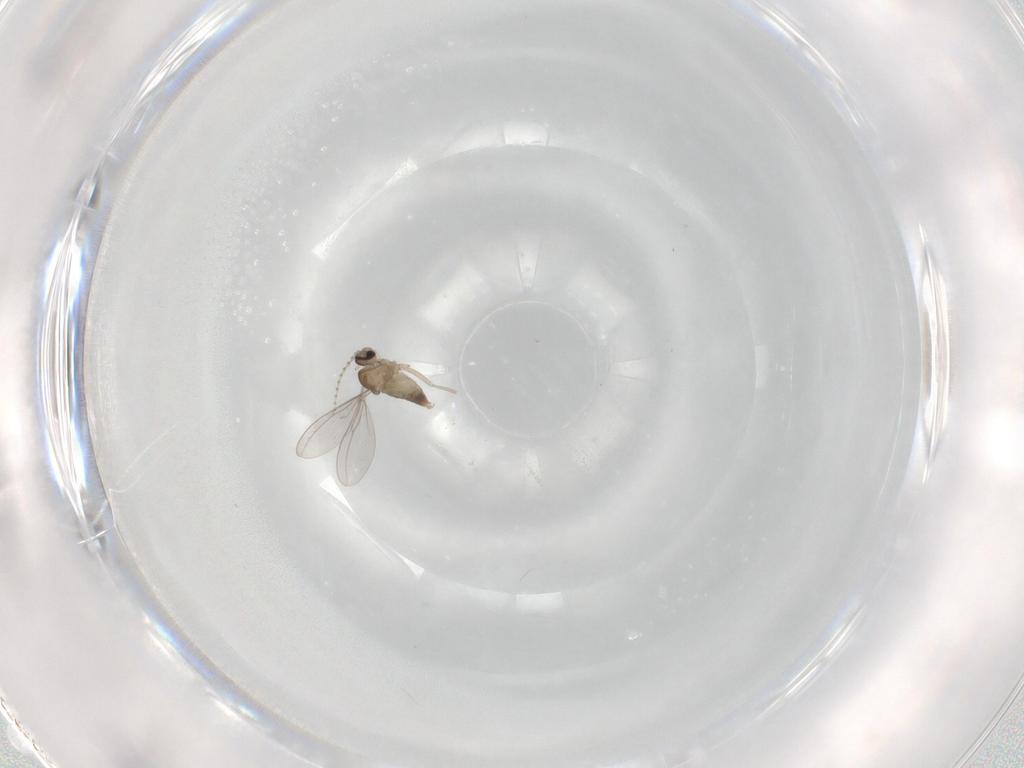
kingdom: Animalia
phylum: Arthropoda
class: Insecta
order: Diptera
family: Cecidomyiidae
